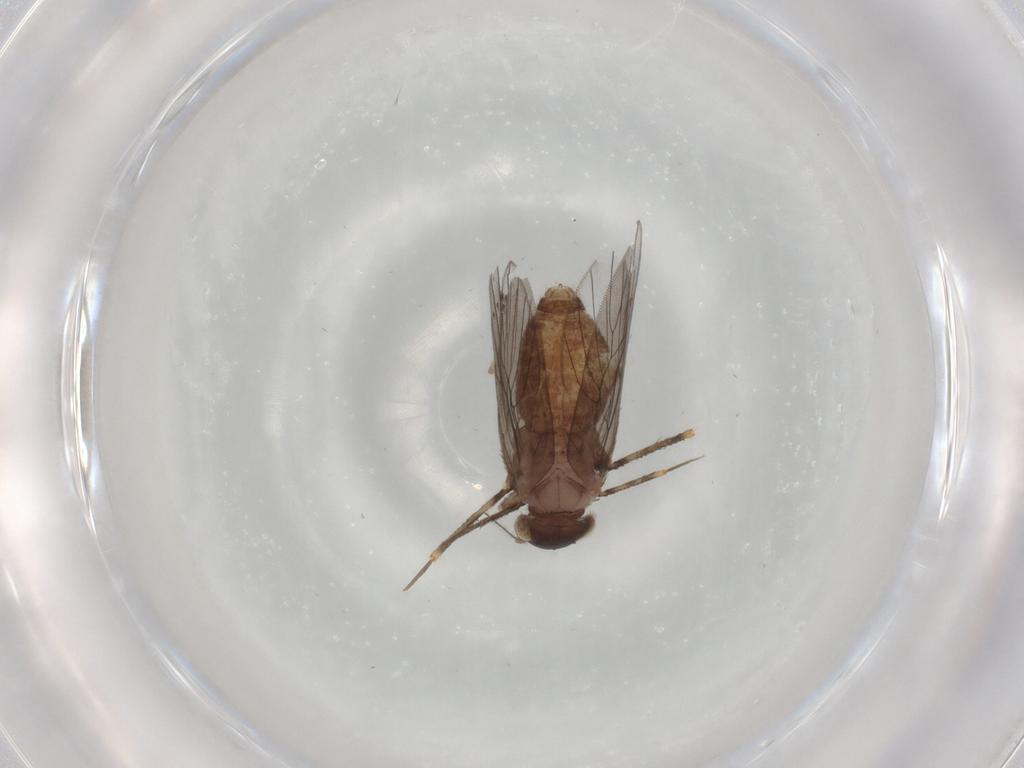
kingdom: Animalia
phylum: Arthropoda
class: Insecta
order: Psocodea
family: Lepidopsocidae
